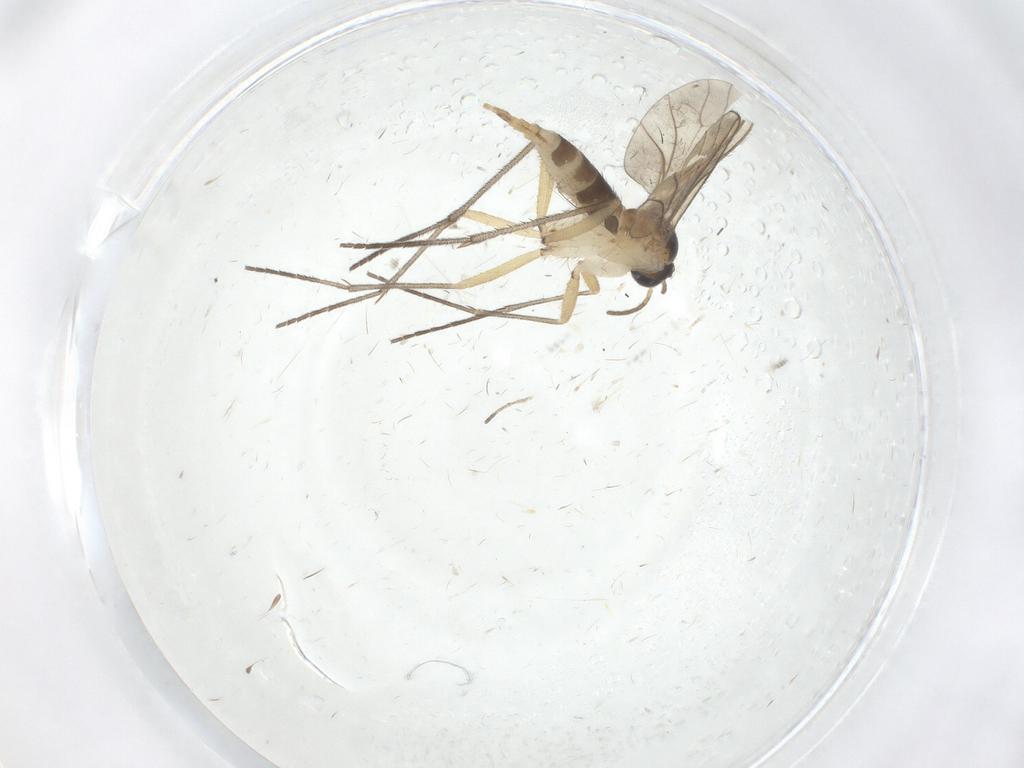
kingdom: Animalia
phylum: Arthropoda
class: Insecta
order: Diptera
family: Sciaridae
